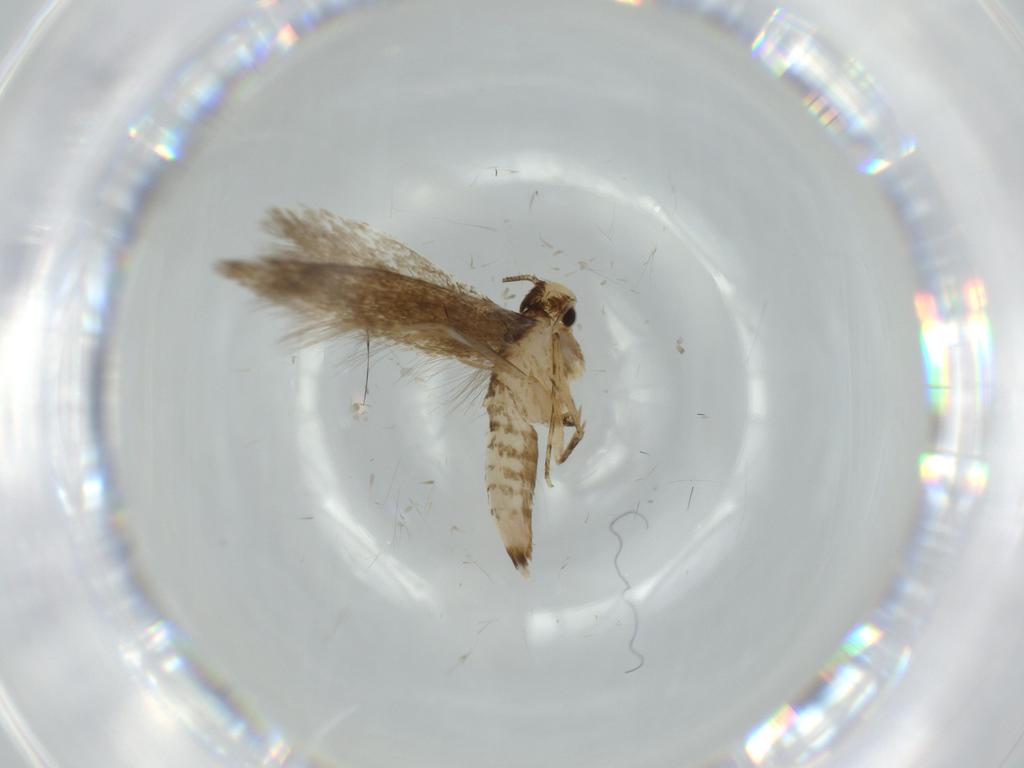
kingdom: Animalia
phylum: Arthropoda
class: Insecta
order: Lepidoptera
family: Tineidae
